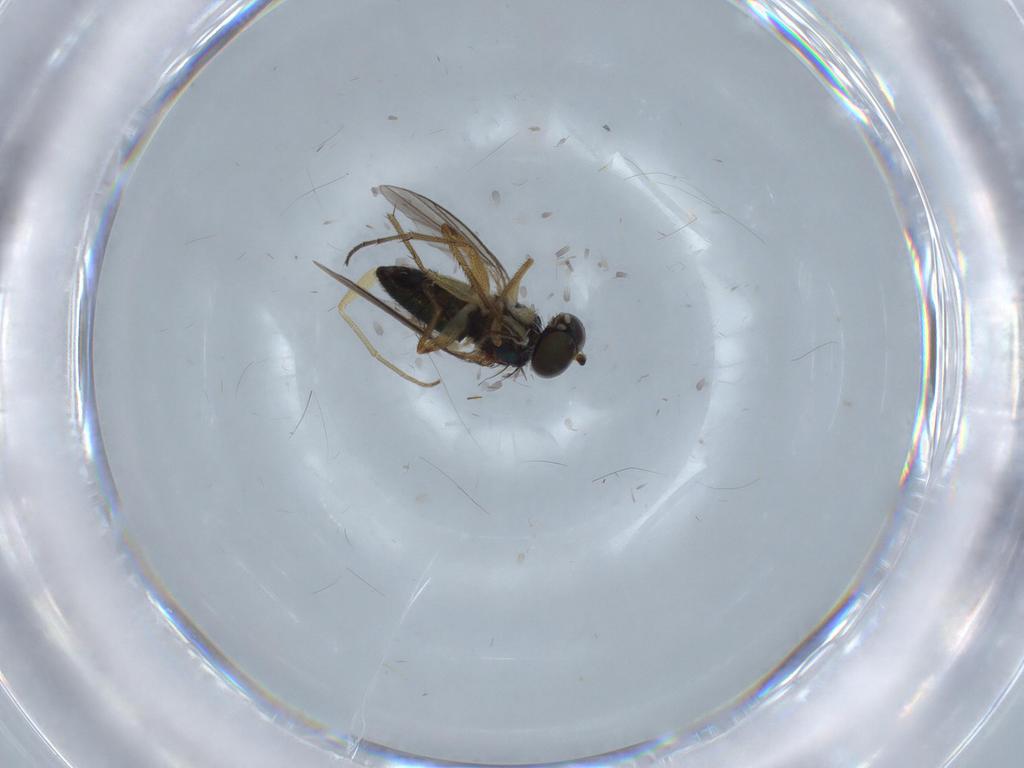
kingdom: Animalia
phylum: Arthropoda
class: Insecta
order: Diptera
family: Dolichopodidae
